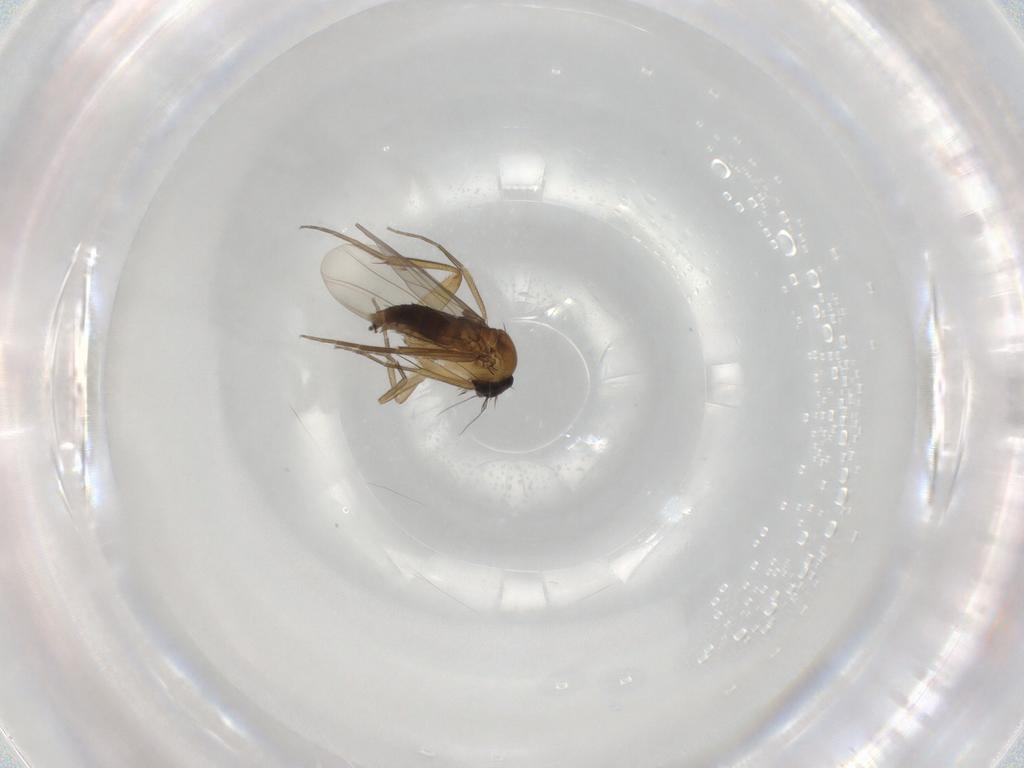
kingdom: Animalia
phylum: Arthropoda
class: Insecta
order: Diptera
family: Phoridae
